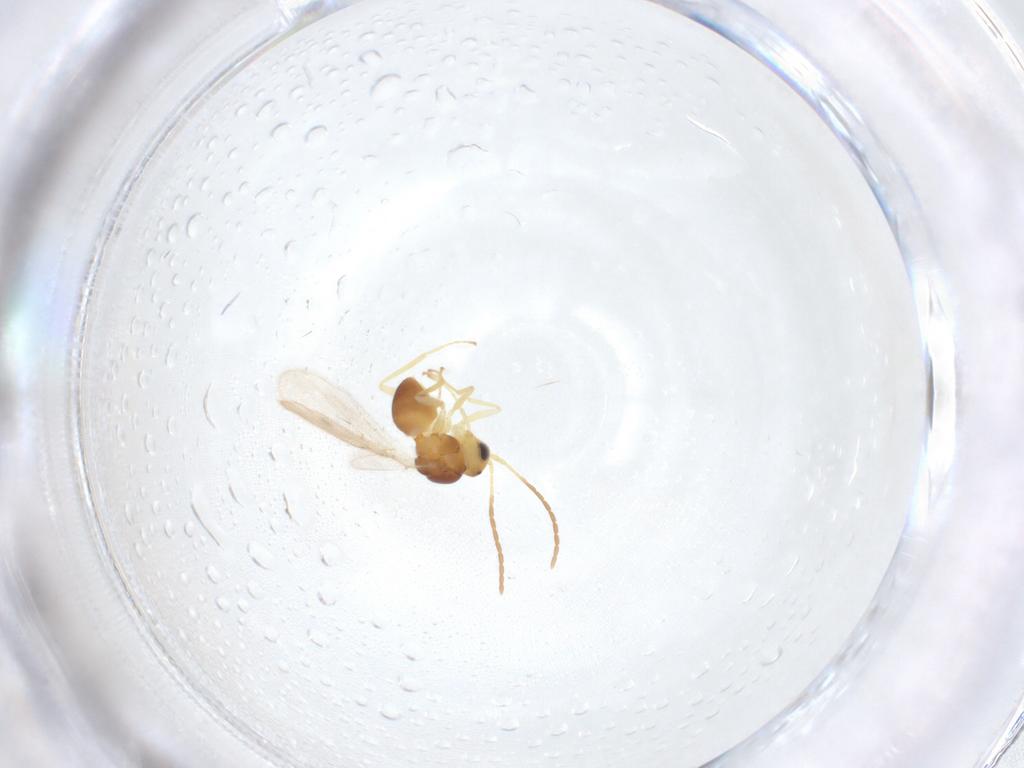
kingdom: Animalia
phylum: Arthropoda
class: Insecta
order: Hymenoptera
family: Figitidae
